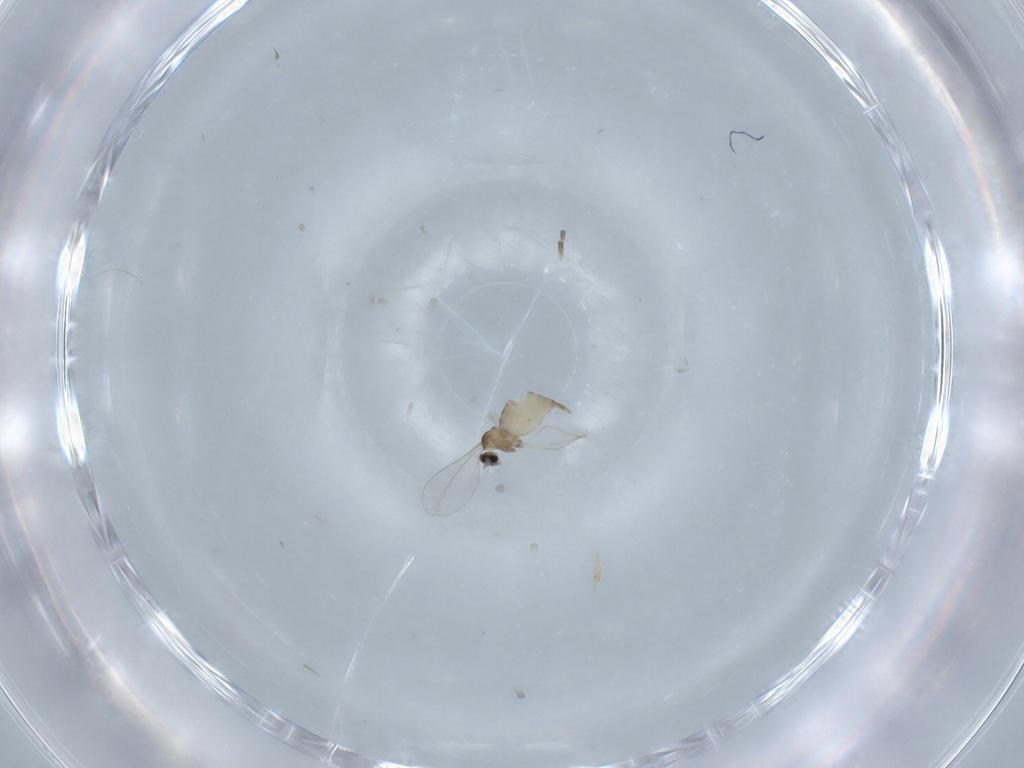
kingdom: Animalia
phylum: Arthropoda
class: Insecta
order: Diptera
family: Cecidomyiidae
